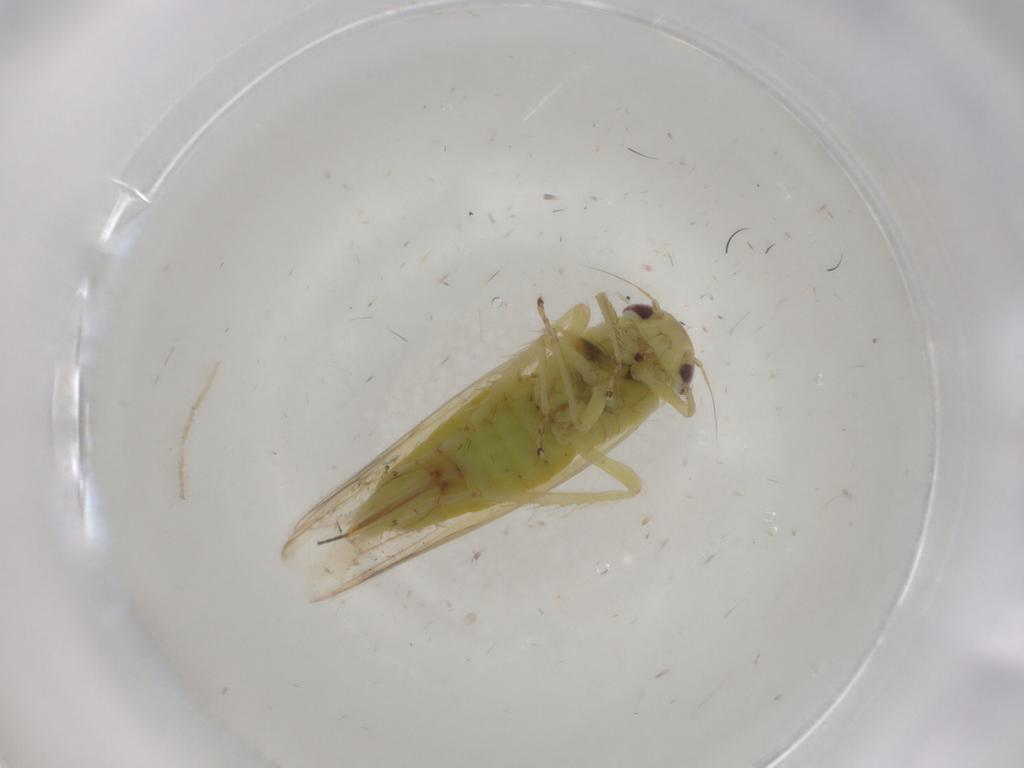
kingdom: Animalia
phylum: Arthropoda
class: Insecta
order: Hemiptera
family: Cicadellidae
